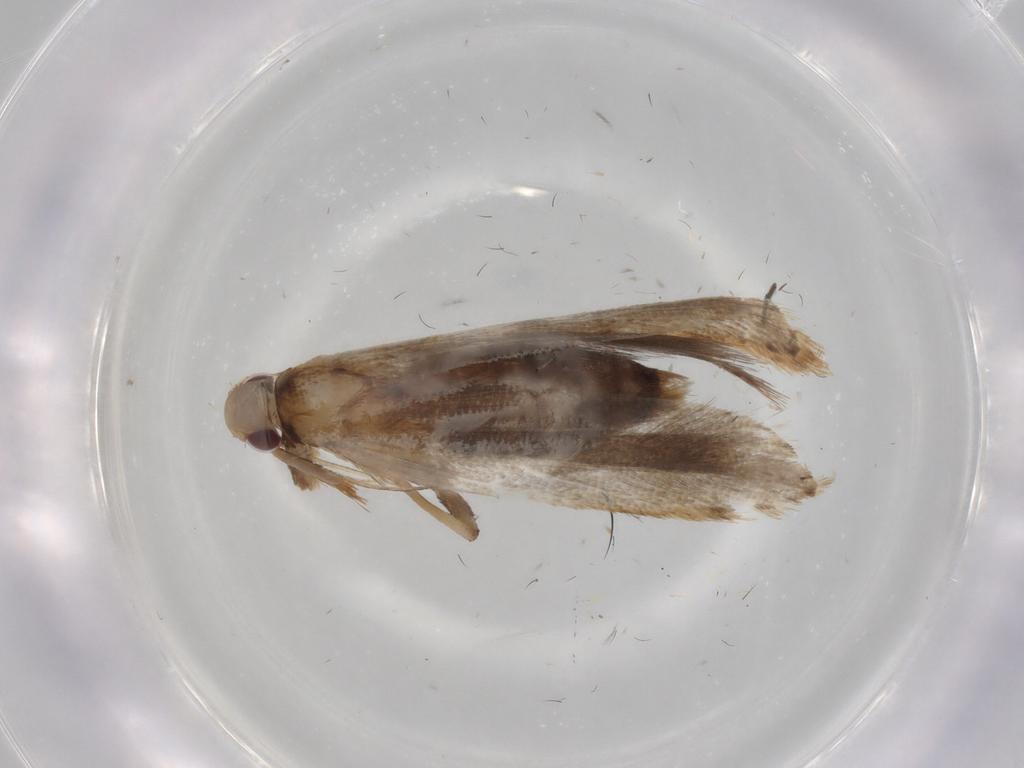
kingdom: Animalia
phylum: Arthropoda
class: Insecta
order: Lepidoptera
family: Gelechiidae
